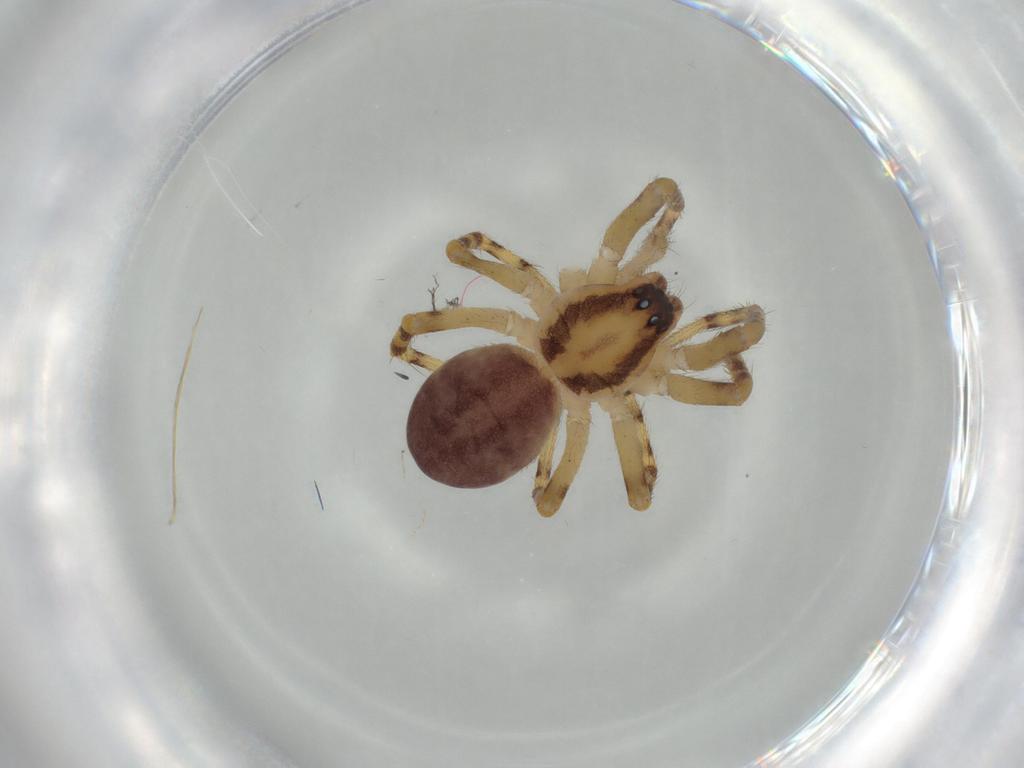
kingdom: Animalia
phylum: Arthropoda
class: Arachnida
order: Araneae
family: Corinnidae
